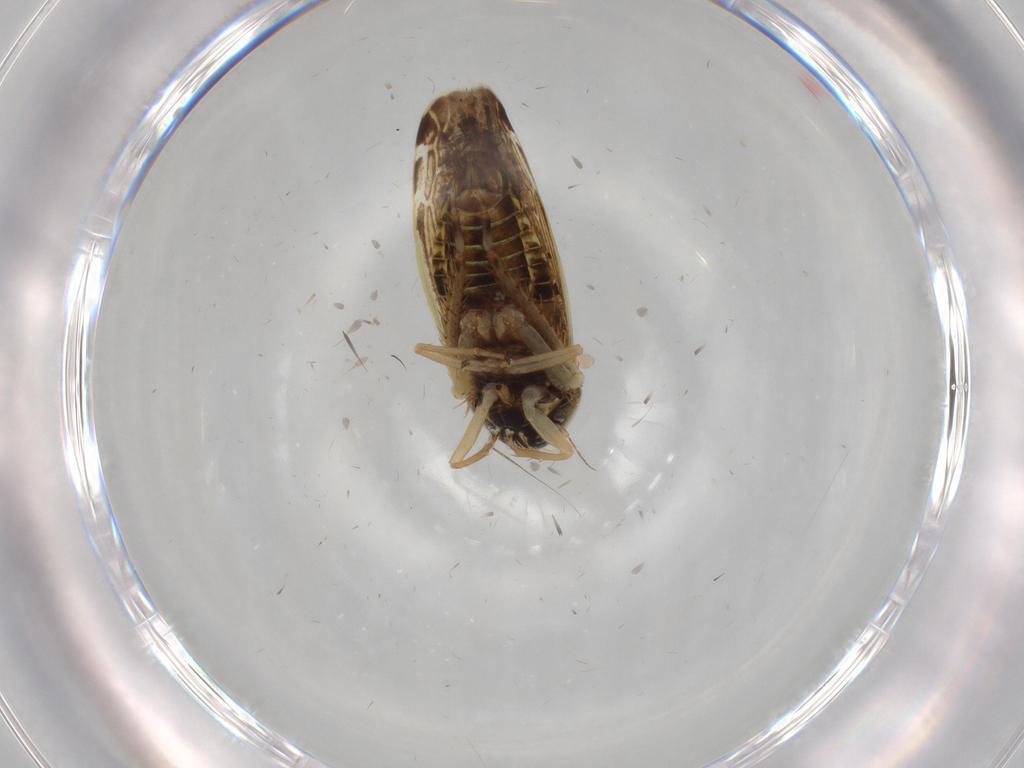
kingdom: Animalia
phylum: Arthropoda
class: Insecta
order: Hemiptera
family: Cicadellidae
